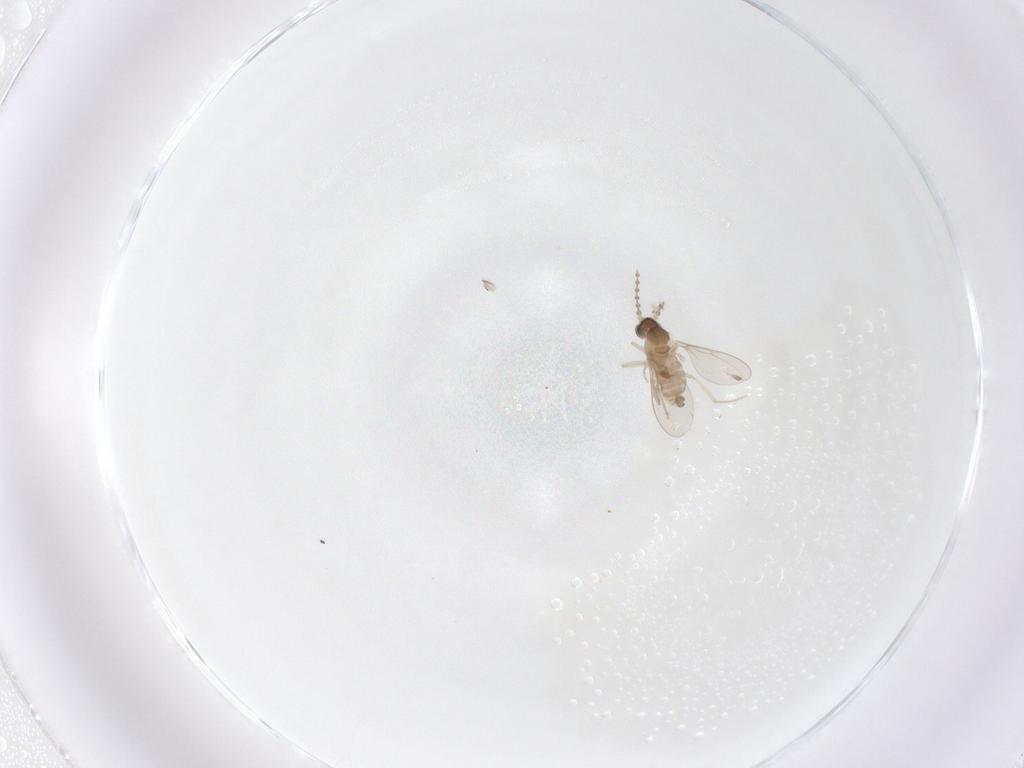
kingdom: Animalia
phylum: Arthropoda
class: Insecta
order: Diptera
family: Cecidomyiidae
